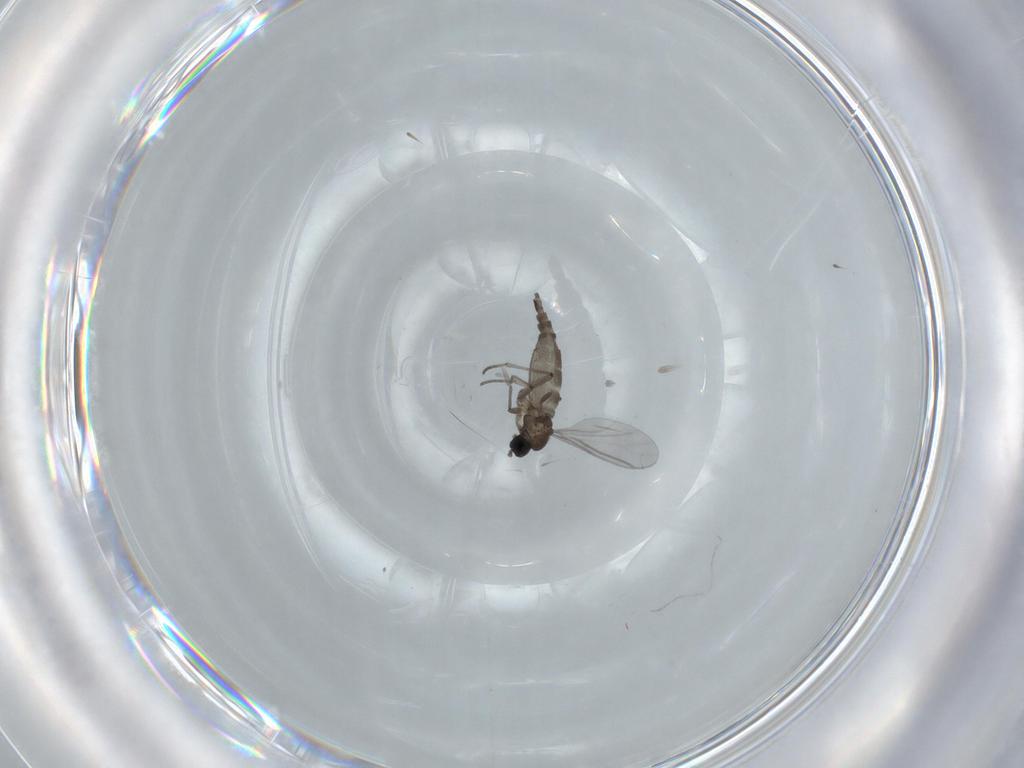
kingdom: Animalia
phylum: Arthropoda
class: Insecta
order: Diptera
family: Sciaridae
